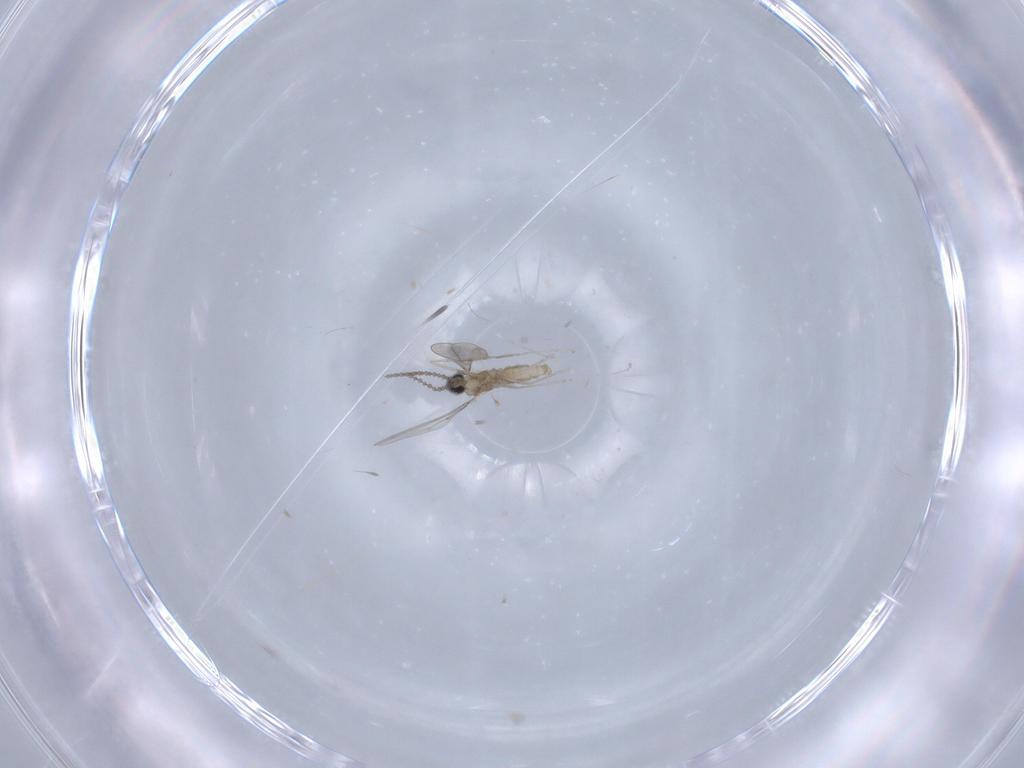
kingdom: Animalia
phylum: Arthropoda
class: Insecta
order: Diptera
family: Cecidomyiidae
